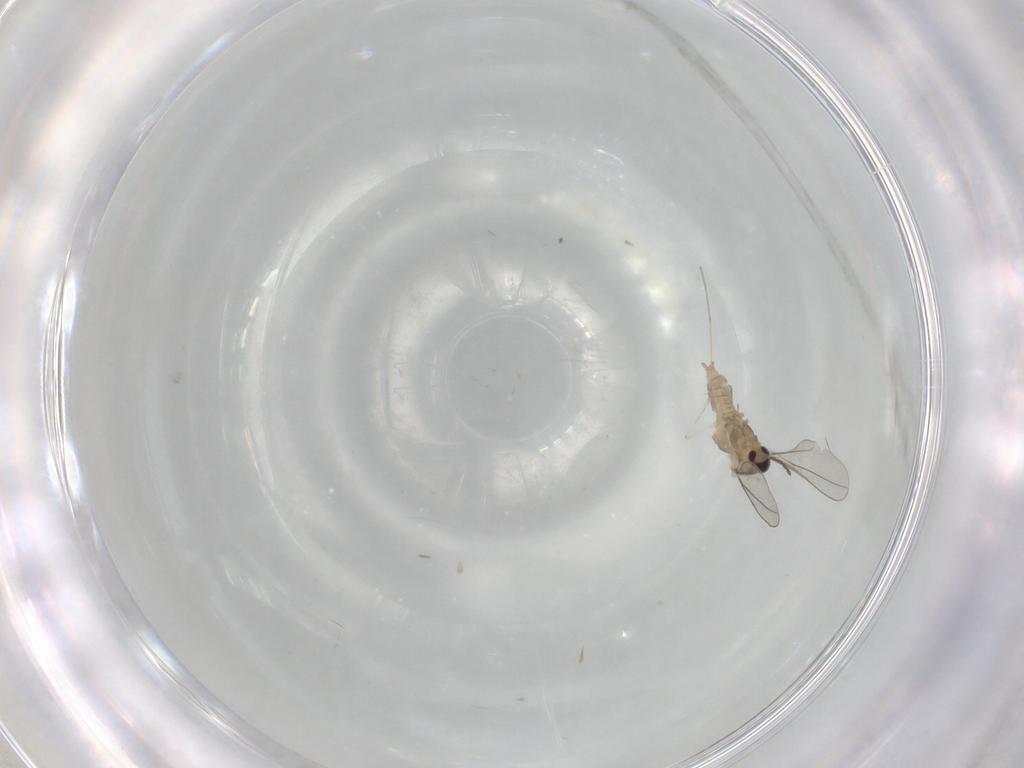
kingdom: Animalia
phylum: Arthropoda
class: Insecta
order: Diptera
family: Cecidomyiidae
